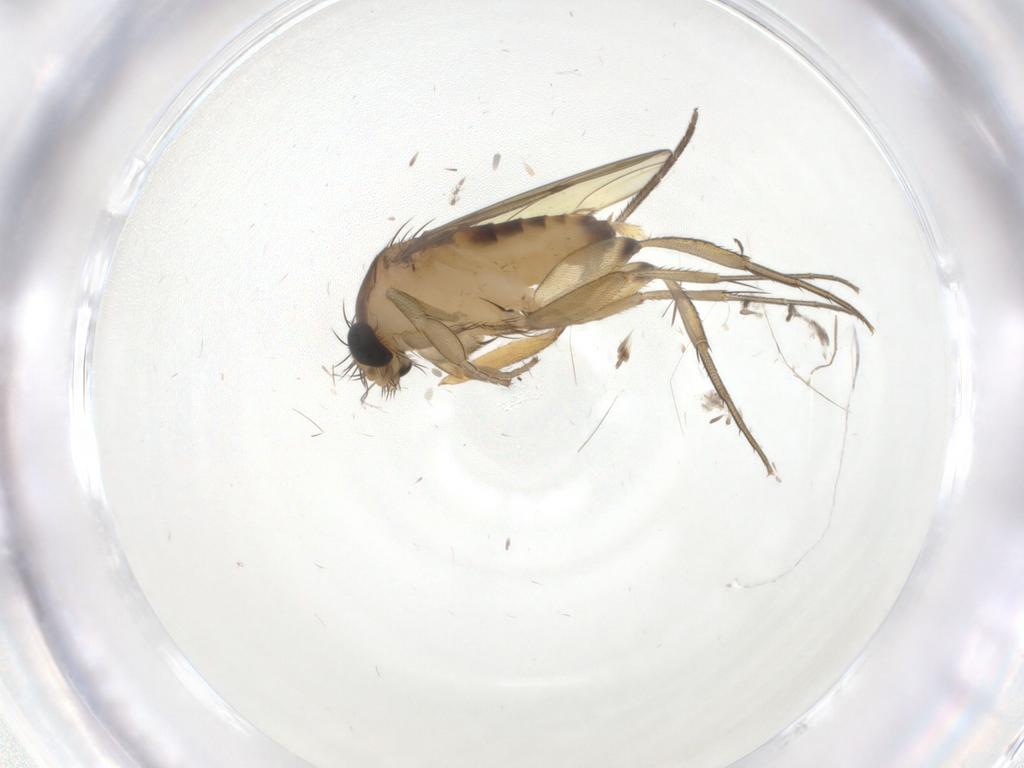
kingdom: Animalia
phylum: Arthropoda
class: Insecta
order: Diptera
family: Phoridae
